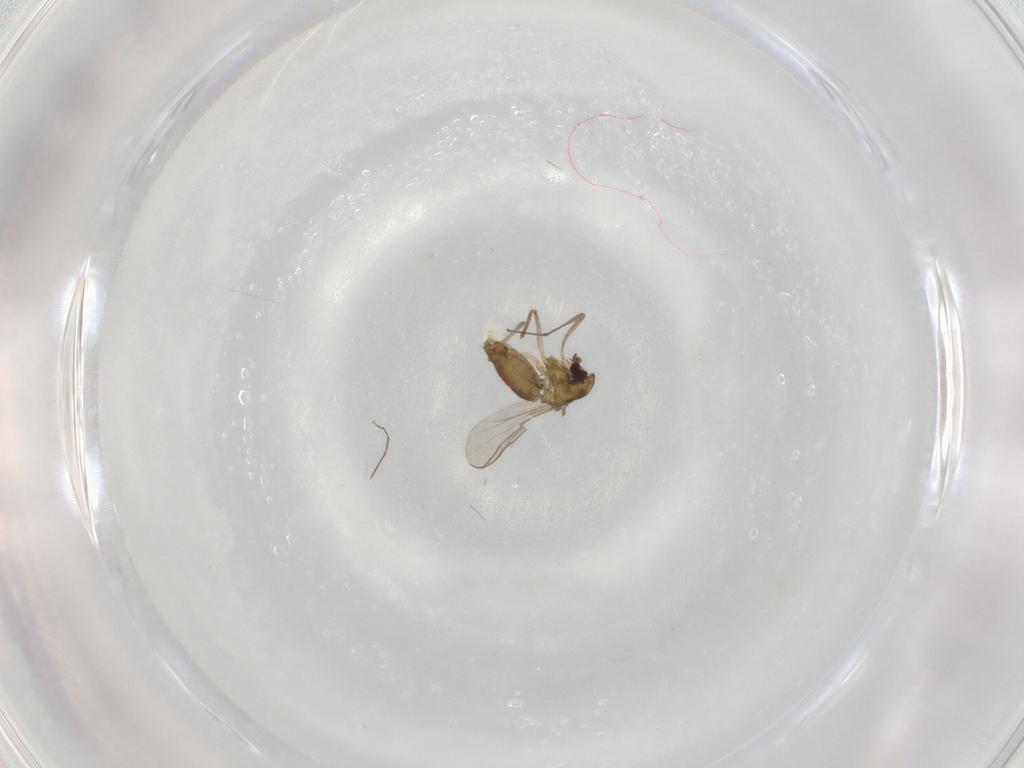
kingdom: Animalia
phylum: Arthropoda
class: Insecta
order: Diptera
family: Chironomidae
